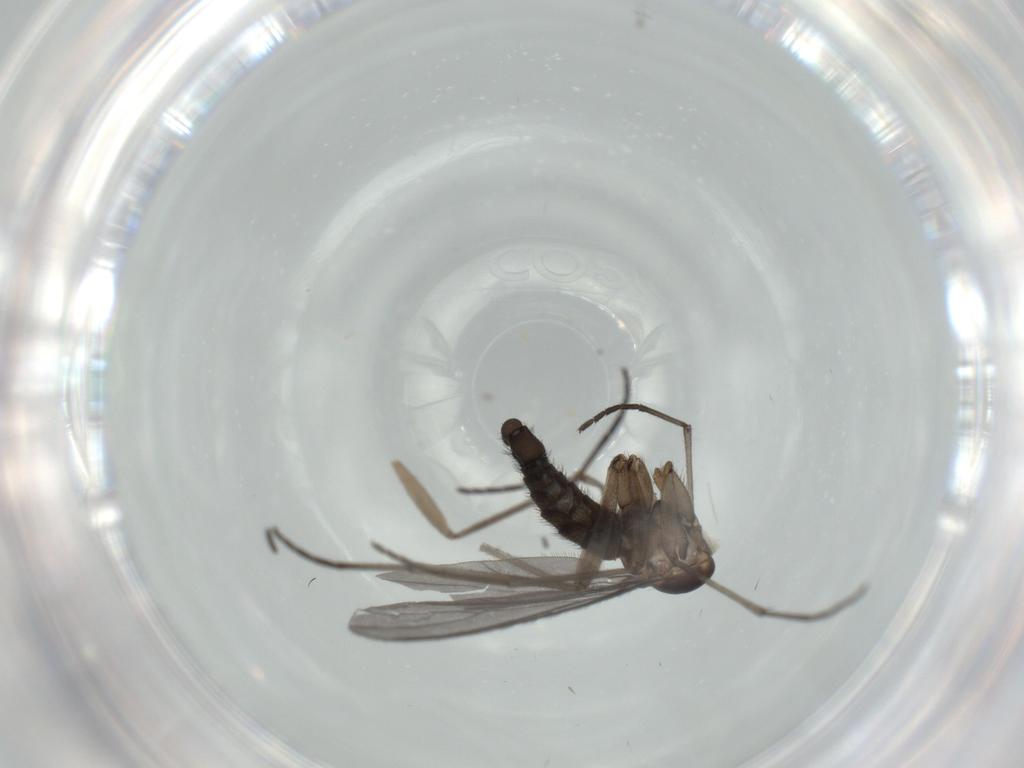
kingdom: Animalia
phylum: Arthropoda
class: Insecta
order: Diptera
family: Sciaridae
